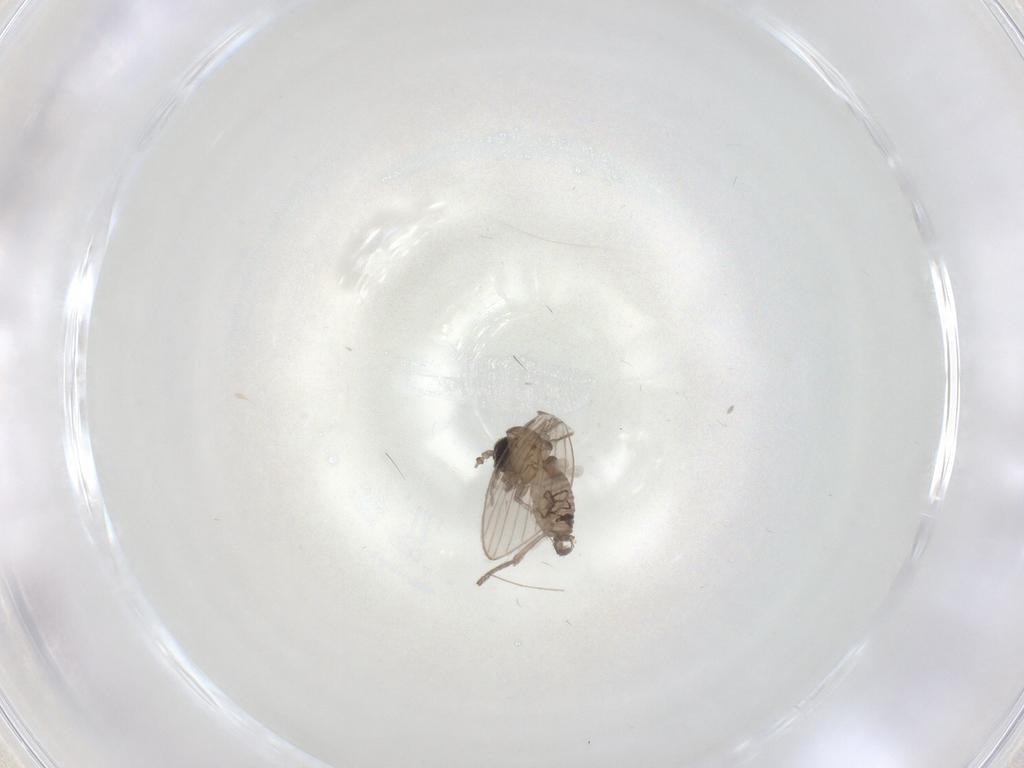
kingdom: Animalia
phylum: Arthropoda
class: Insecta
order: Diptera
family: Psychodidae
